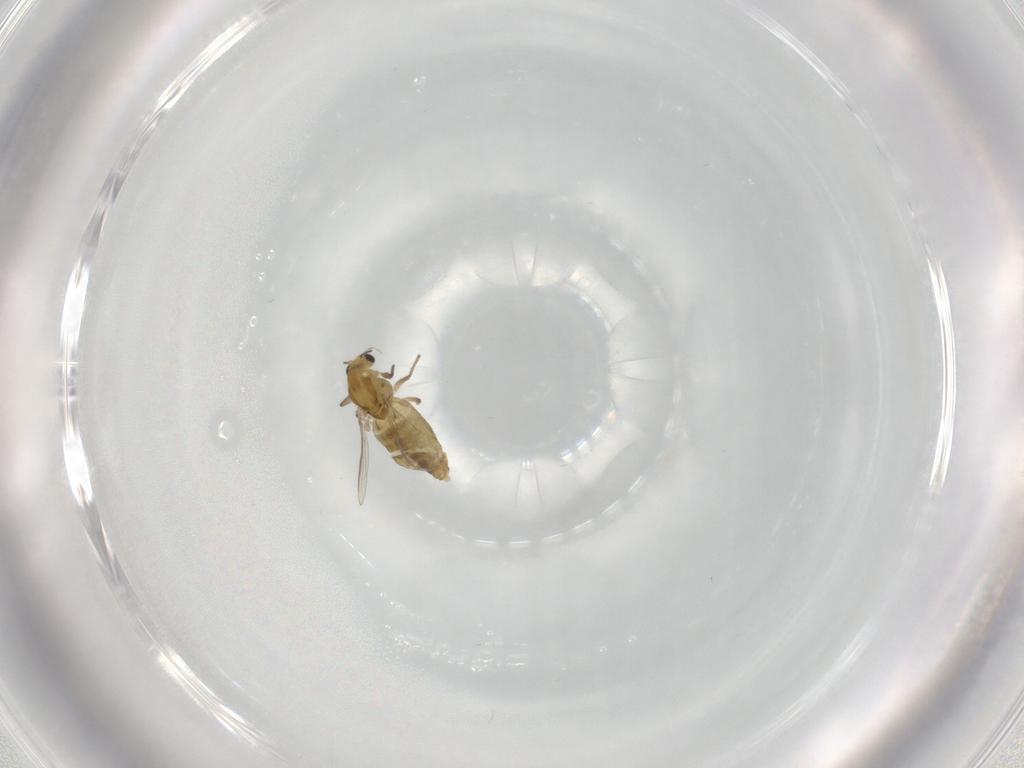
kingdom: Animalia
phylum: Arthropoda
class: Insecta
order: Diptera
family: Chironomidae
